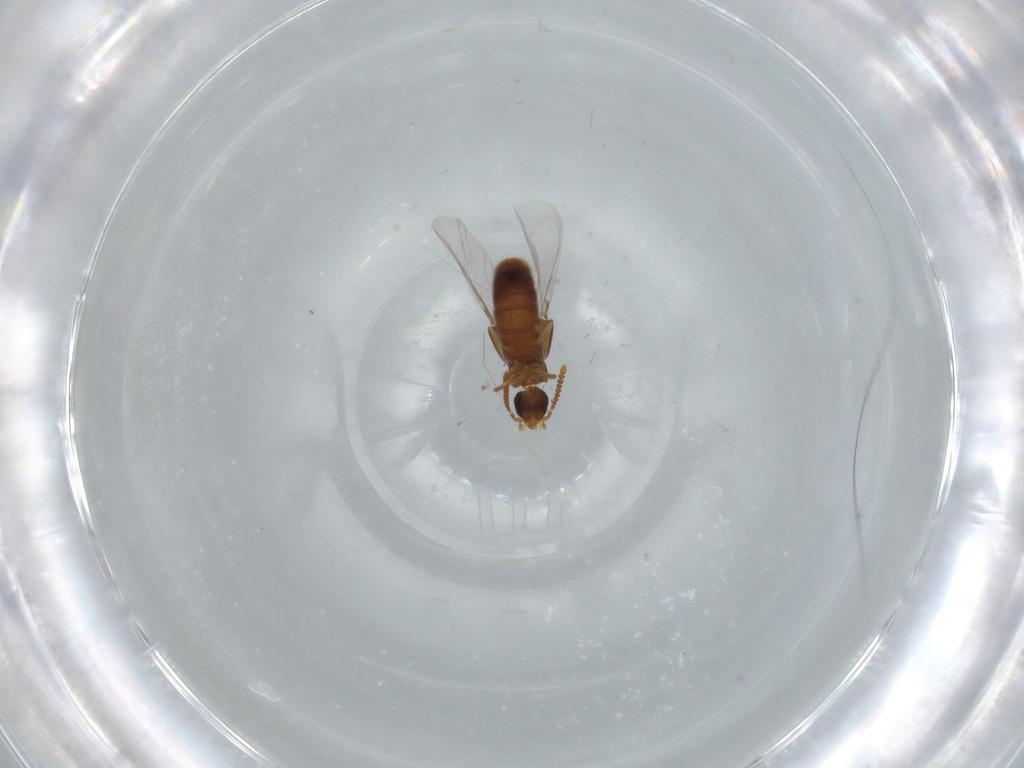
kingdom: Animalia
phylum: Arthropoda
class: Insecta
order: Coleoptera
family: Staphylinidae
